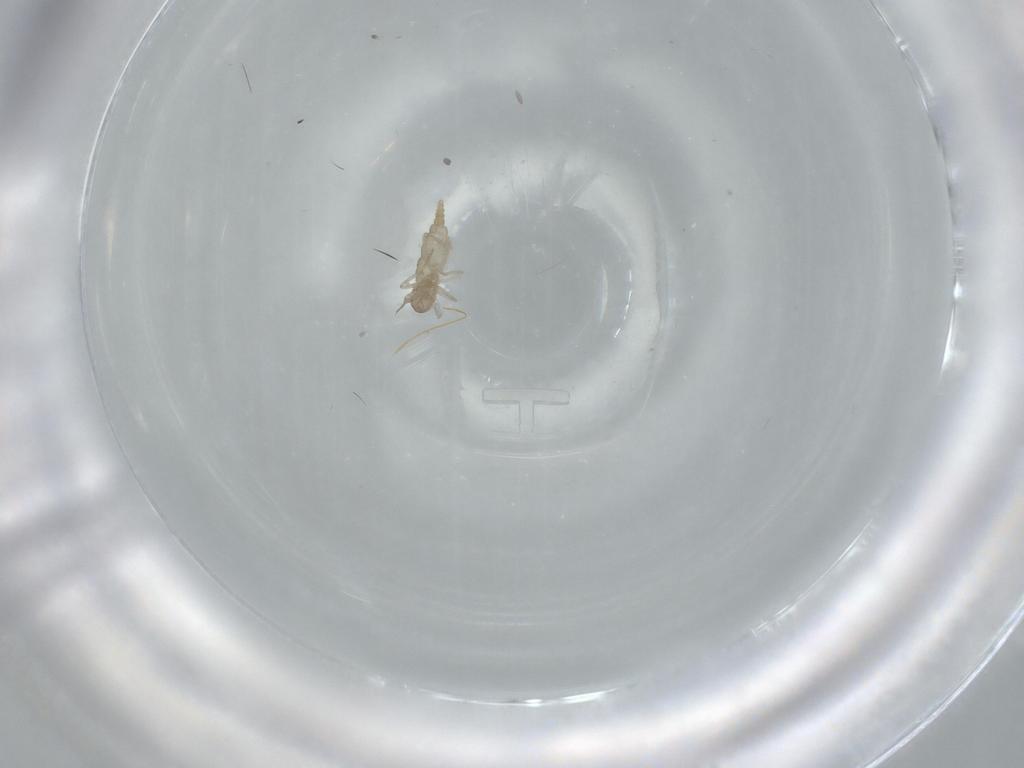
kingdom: Animalia
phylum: Arthropoda
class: Insecta
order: Diptera
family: Cecidomyiidae
